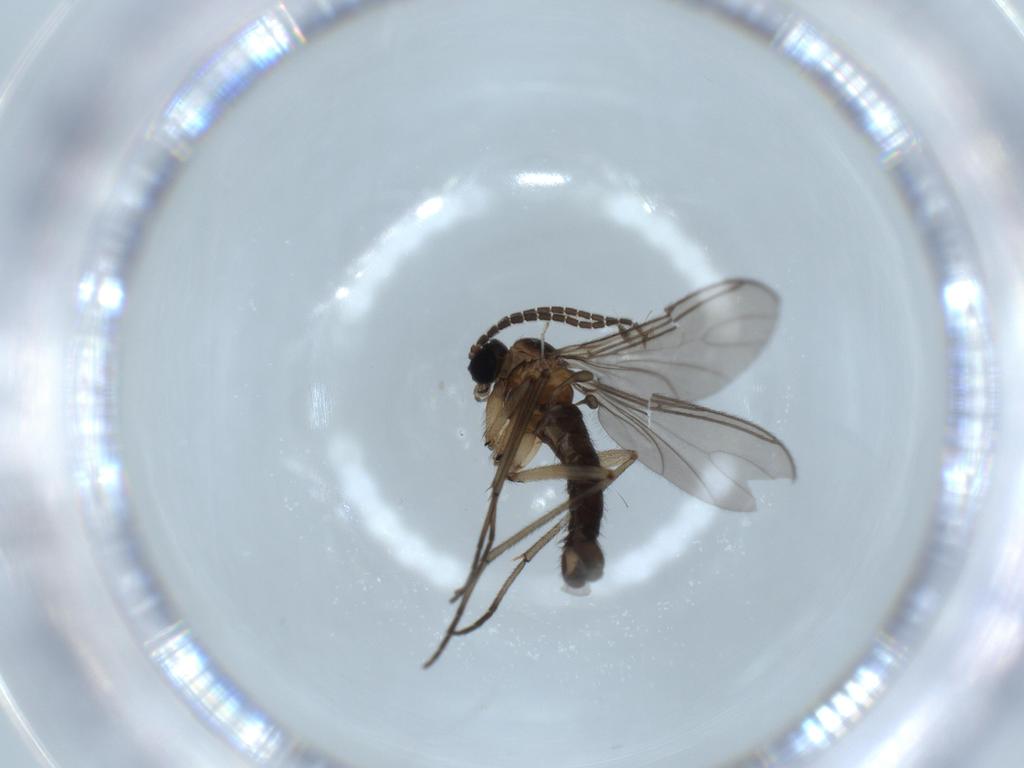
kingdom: Animalia
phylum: Arthropoda
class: Insecta
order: Diptera
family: Sciaridae
